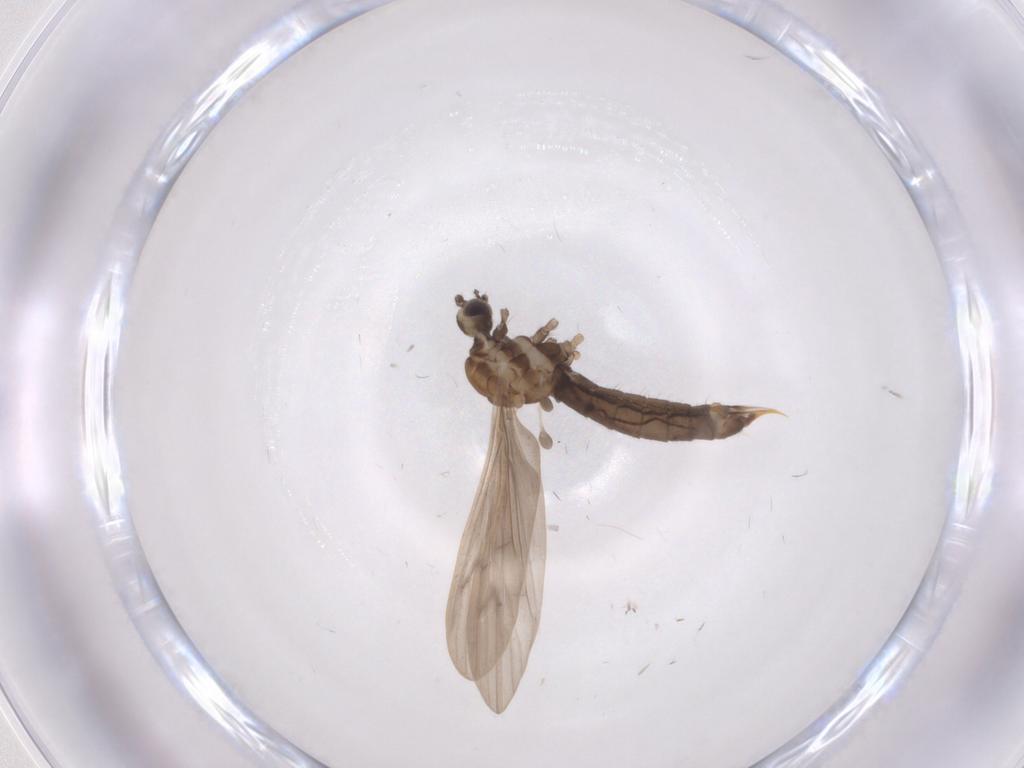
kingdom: Animalia
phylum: Arthropoda
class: Insecta
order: Diptera
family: Limoniidae
